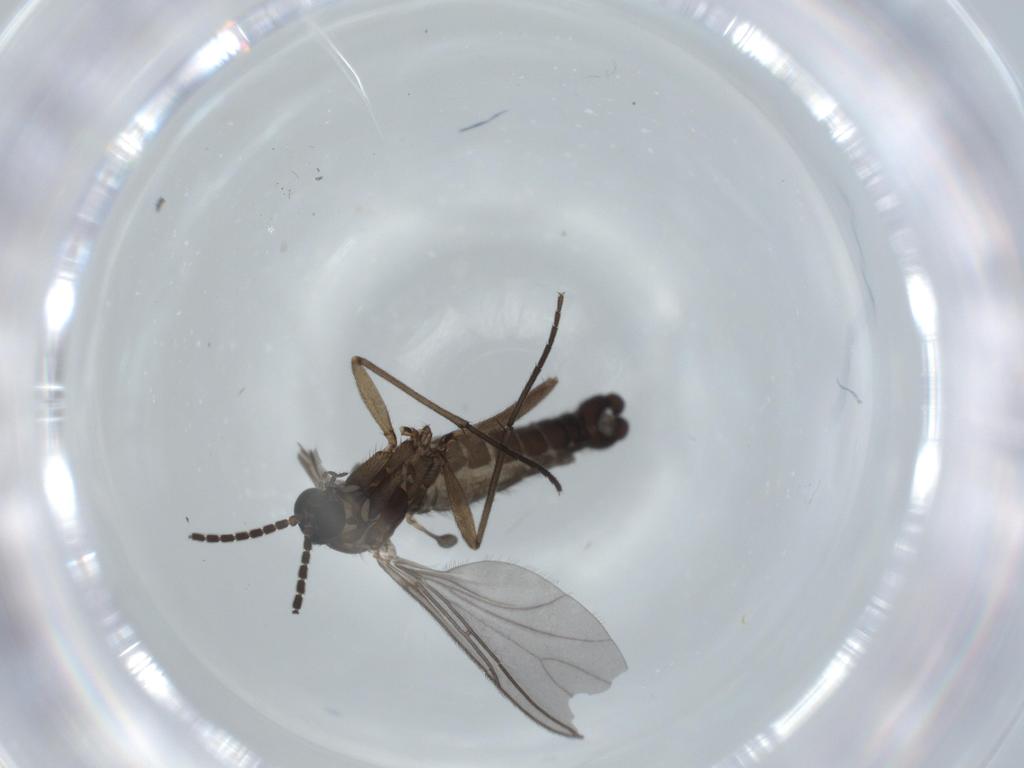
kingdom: Animalia
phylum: Arthropoda
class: Insecta
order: Diptera
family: Sciaridae
